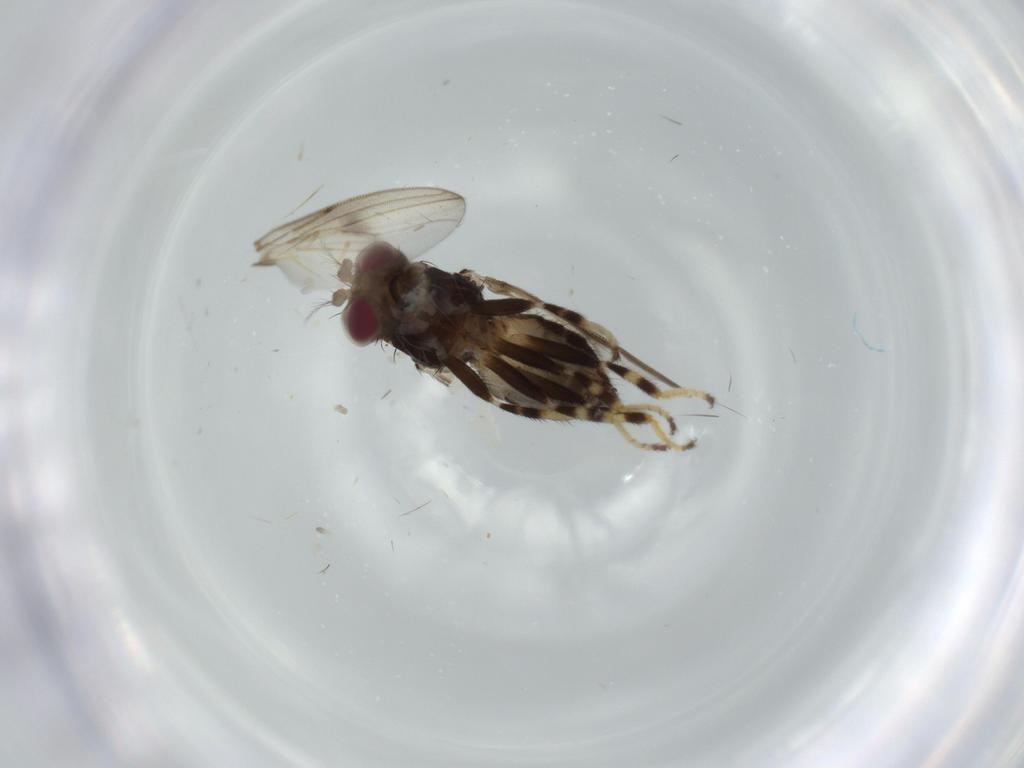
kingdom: Animalia
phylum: Arthropoda
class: Insecta
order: Diptera
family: Ephydridae
